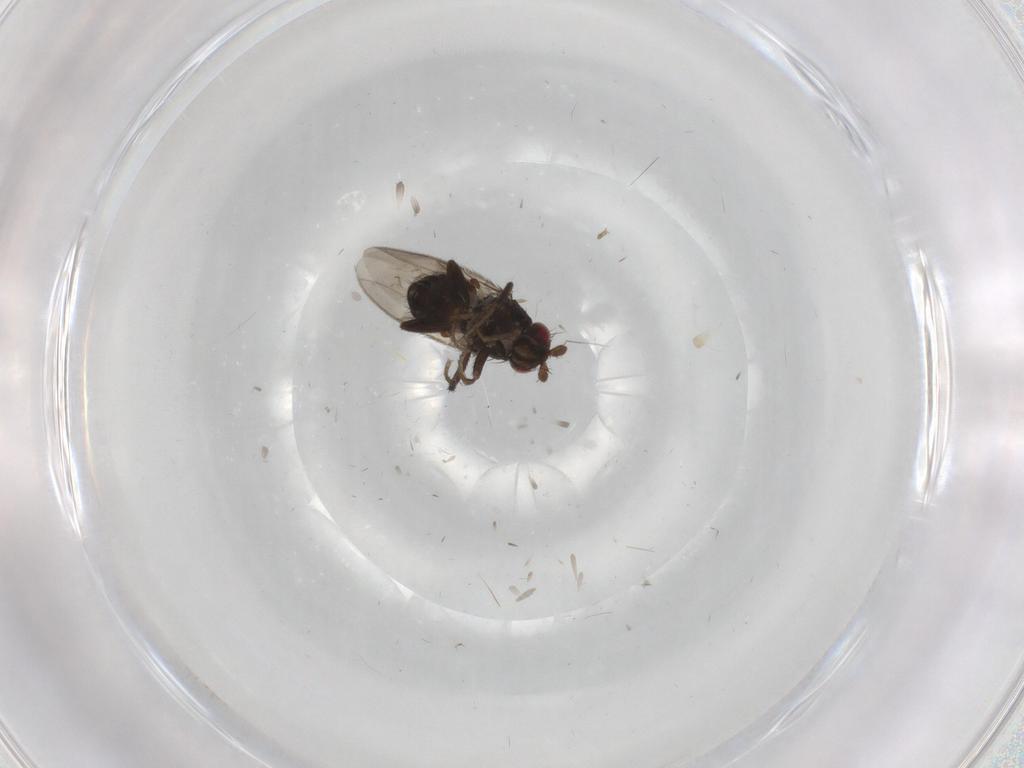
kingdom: Animalia
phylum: Arthropoda
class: Insecta
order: Diptera
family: Sphaeroceridae
